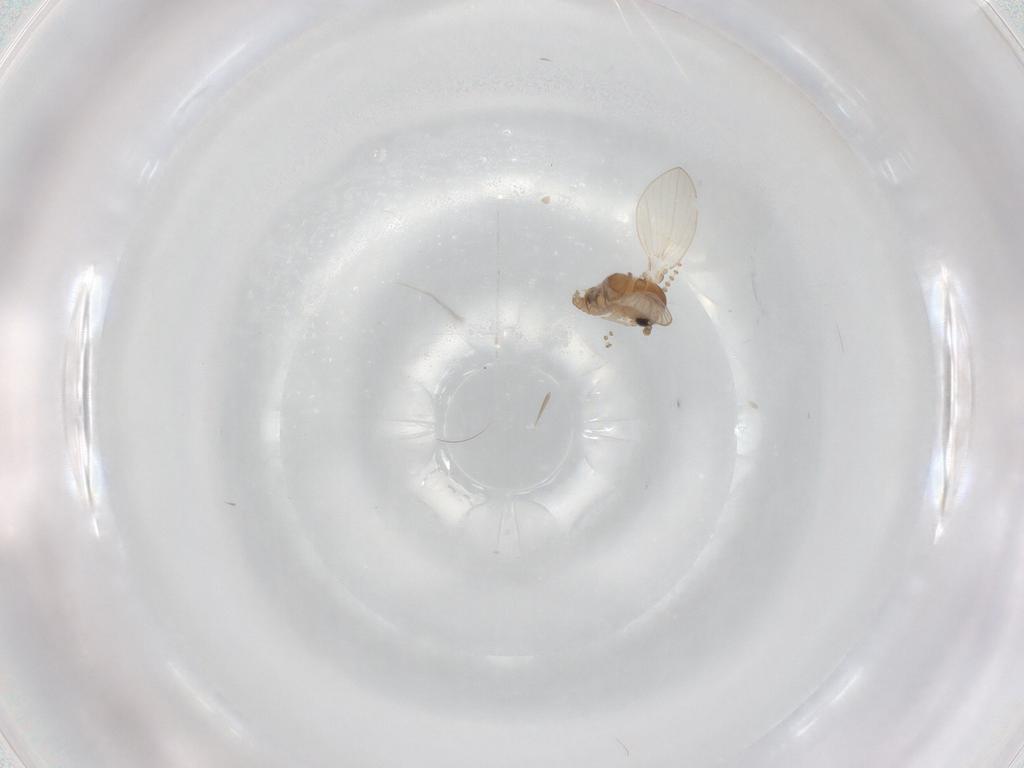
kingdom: Animalia
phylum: Arthropoda
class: Insecta
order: Diptera
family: Psychodidae
